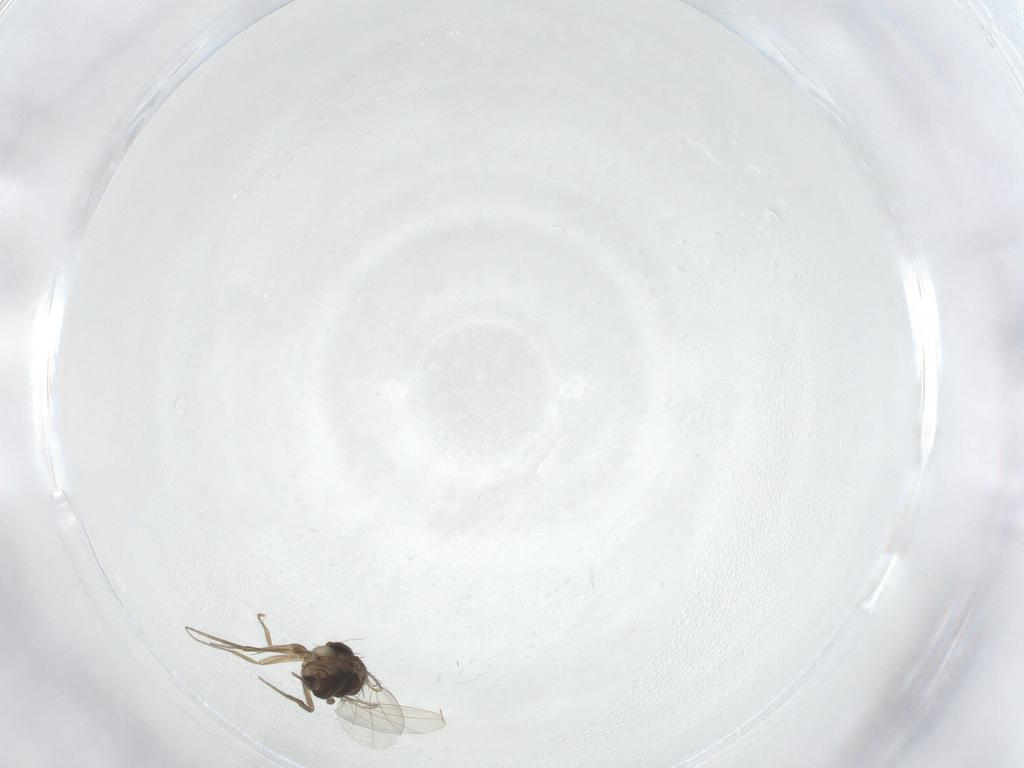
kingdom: Animalia
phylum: Arthropoda
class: Insecta
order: Diptera
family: Phoridae
